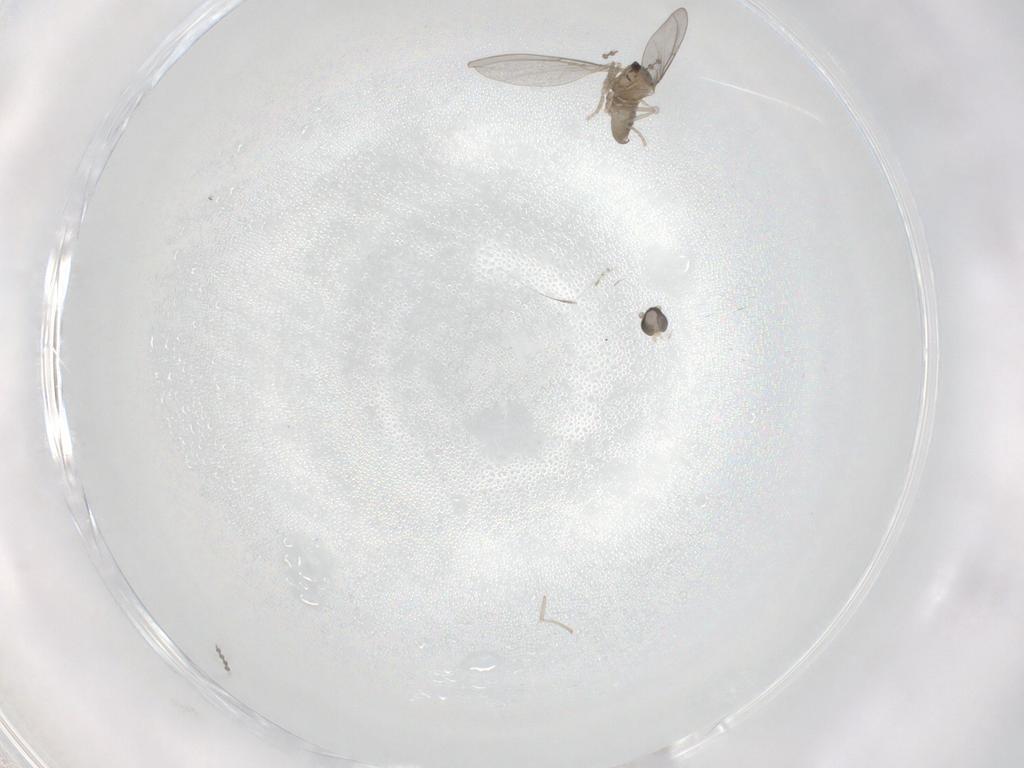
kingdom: Animalia
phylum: Arthropoda
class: Insecta
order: Diptera
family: Cecidomyiidae
